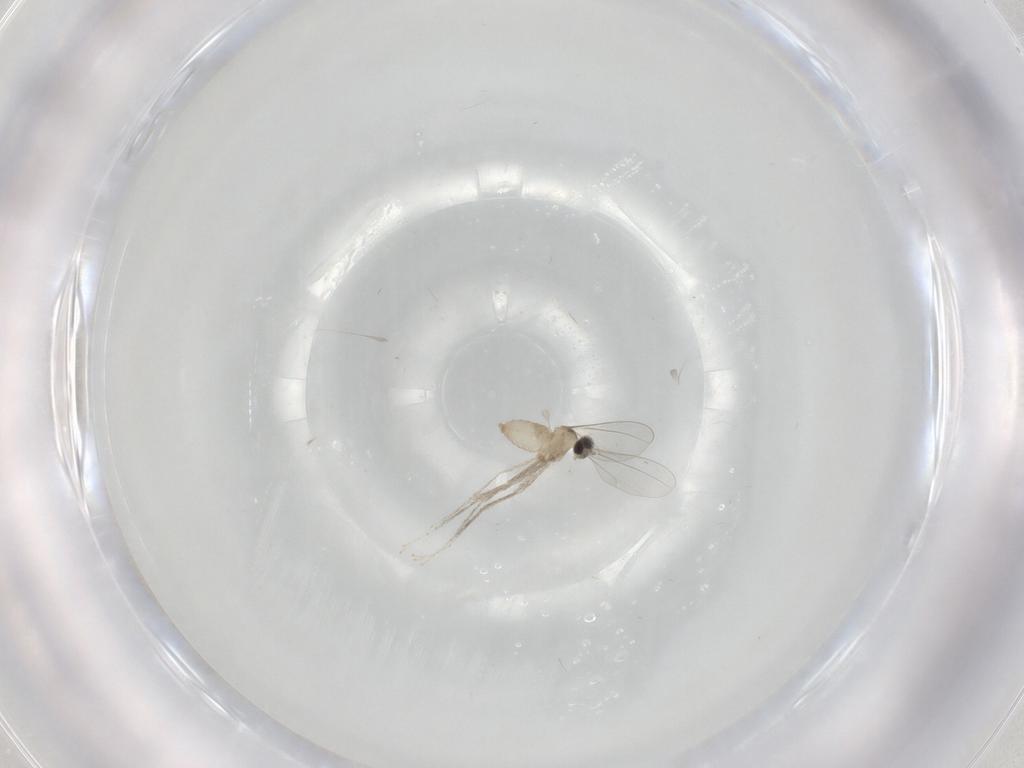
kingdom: Animalia
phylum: Arthropoda
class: Insecta
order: Diptera
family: Cecidomyiidae
